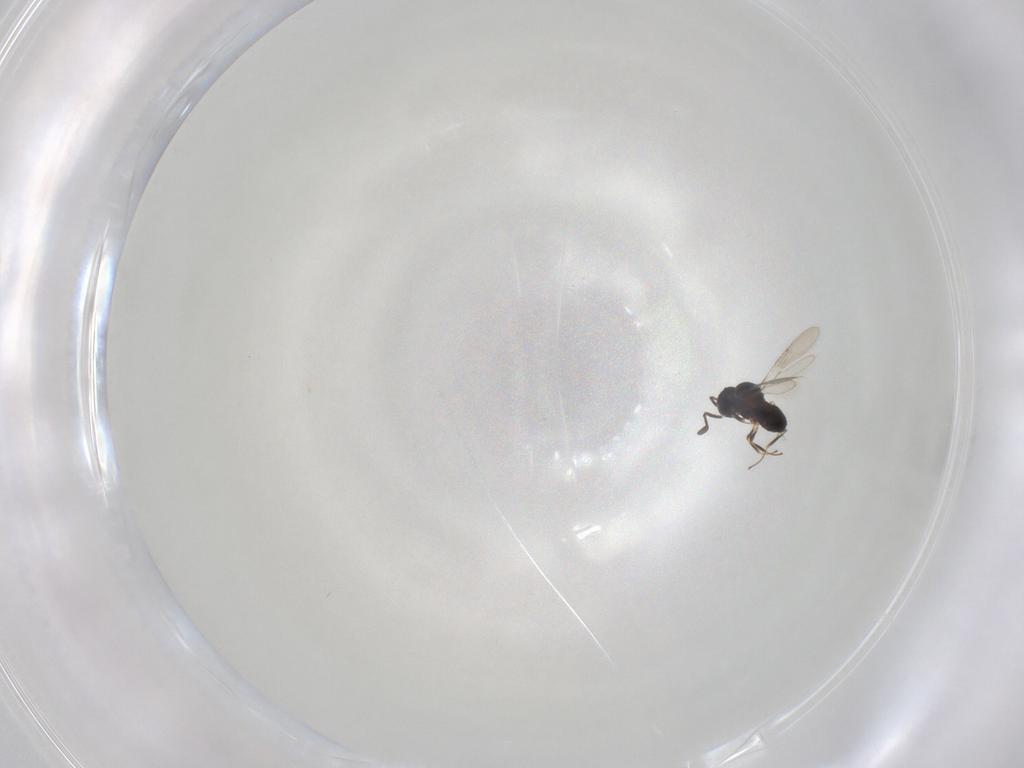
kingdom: Animalia
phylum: Arthropoda
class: Insecta
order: Hymenoptera
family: Scelionidae
